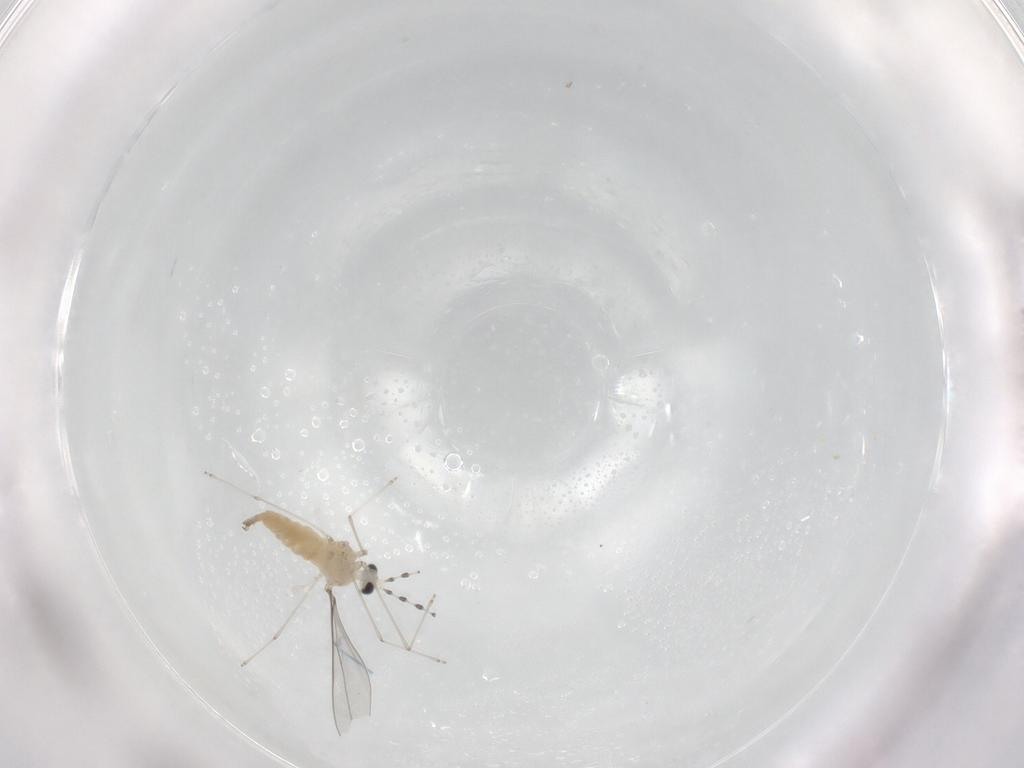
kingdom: Animalia
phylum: Arthropoda
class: Insecta
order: Diptera
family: Cecidomyiidae
